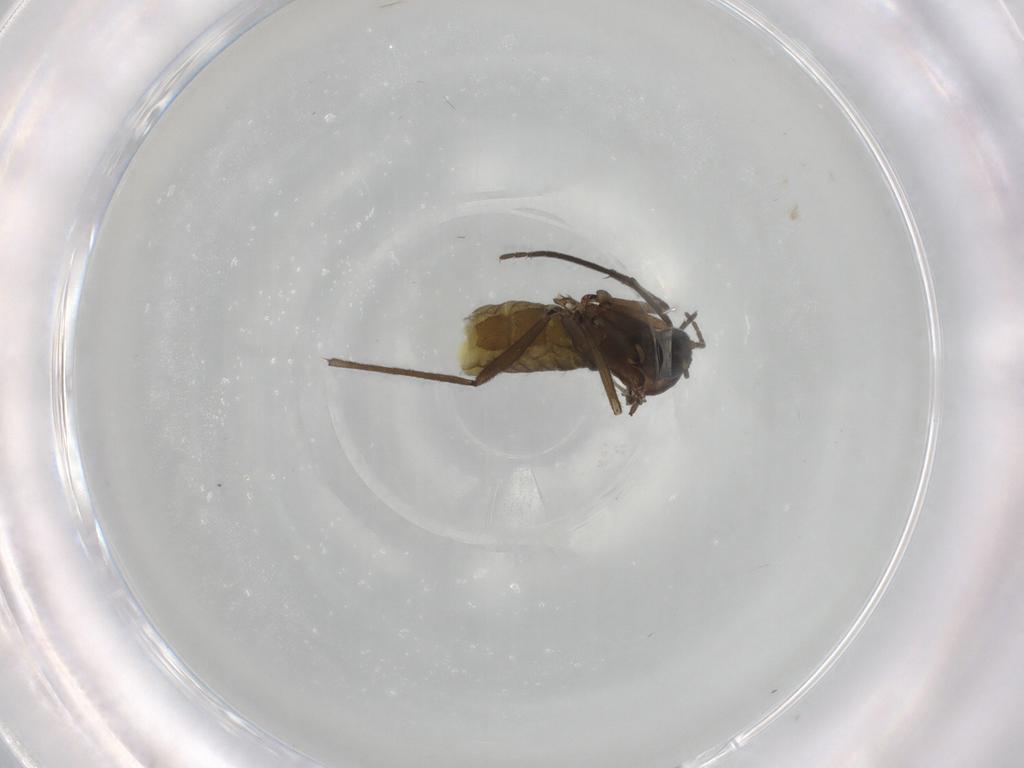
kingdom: Animalia
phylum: Arthropoda
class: Insecta
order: Diptera
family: Sciaridae
